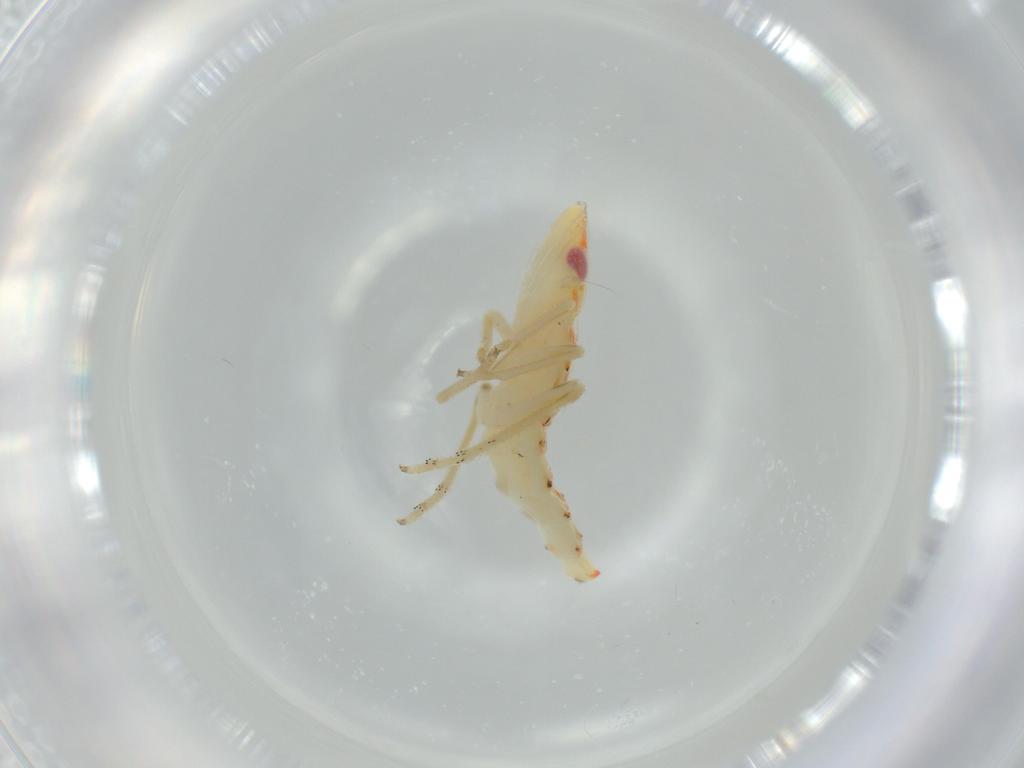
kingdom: Animalia
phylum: Arthropoda
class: Insecta
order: Hemiptera
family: Tropiduchidae
